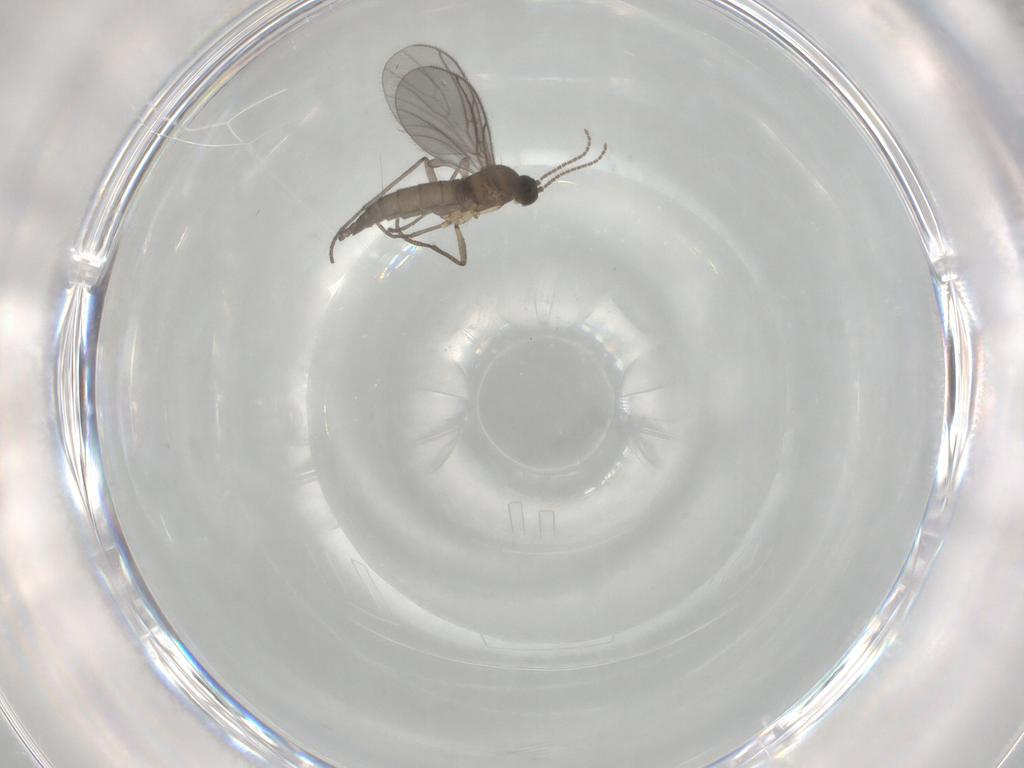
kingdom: Animalia
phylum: Arthropoda
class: Insecta
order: Diptera
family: Sciaridae
